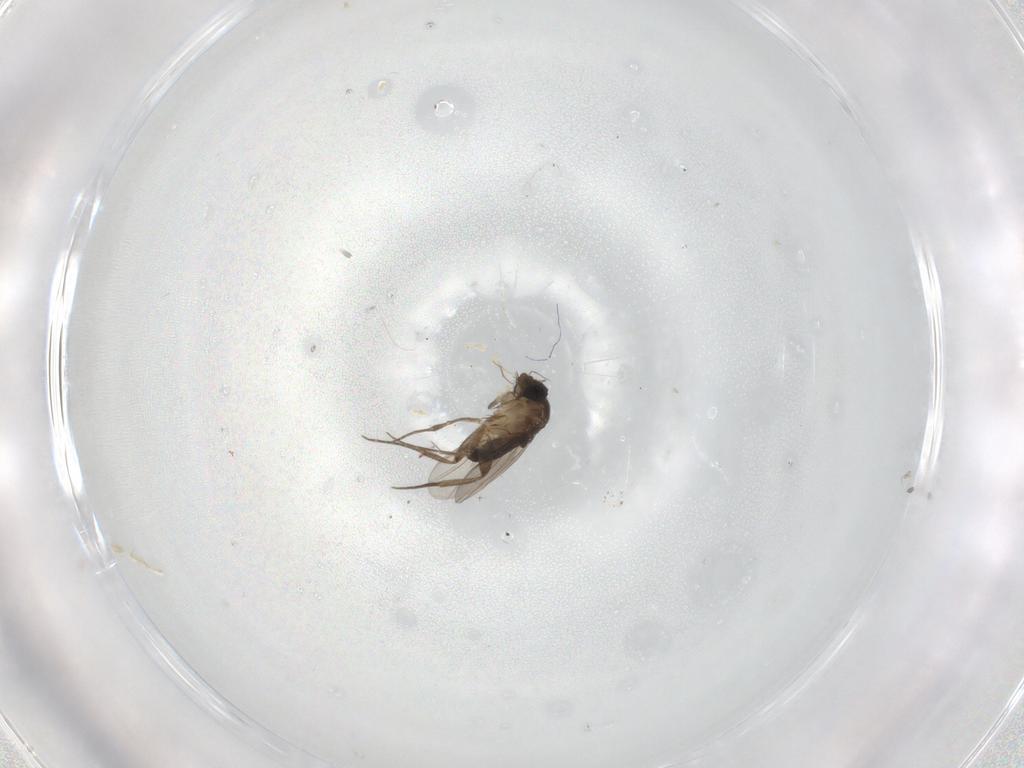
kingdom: Animalia
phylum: Arthropoda
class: Insecta
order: Diptera
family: Phoridae
